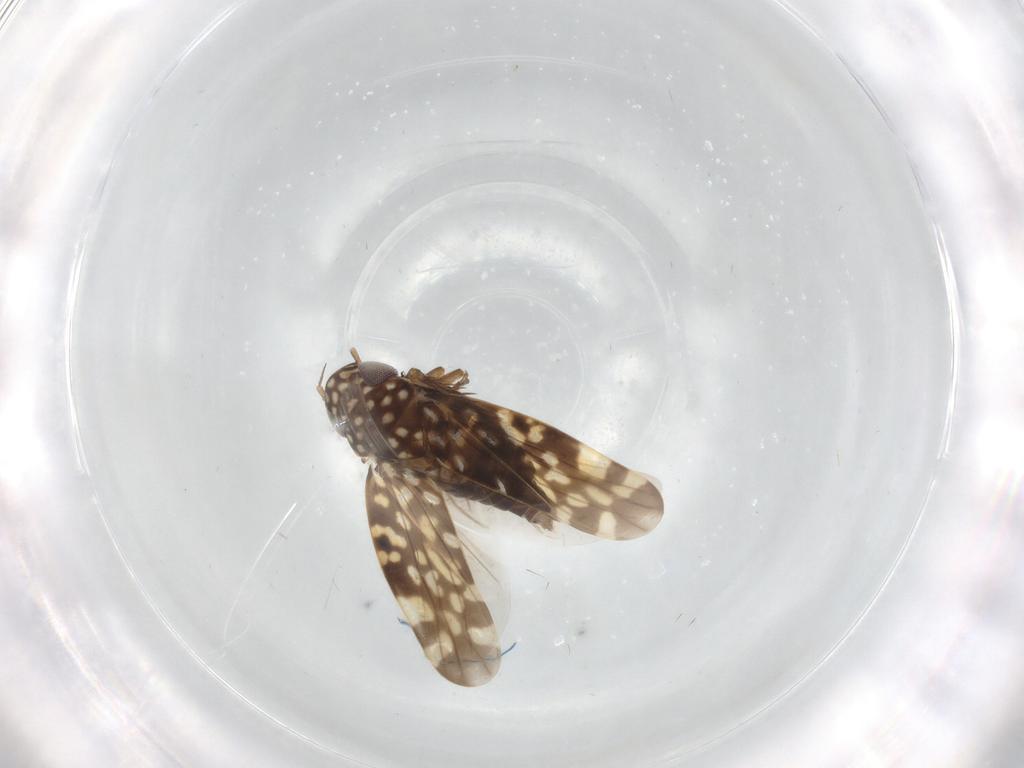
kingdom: Animalia
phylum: Arthropoda
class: Insecta
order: Hemiptera
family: Cicadellidae
